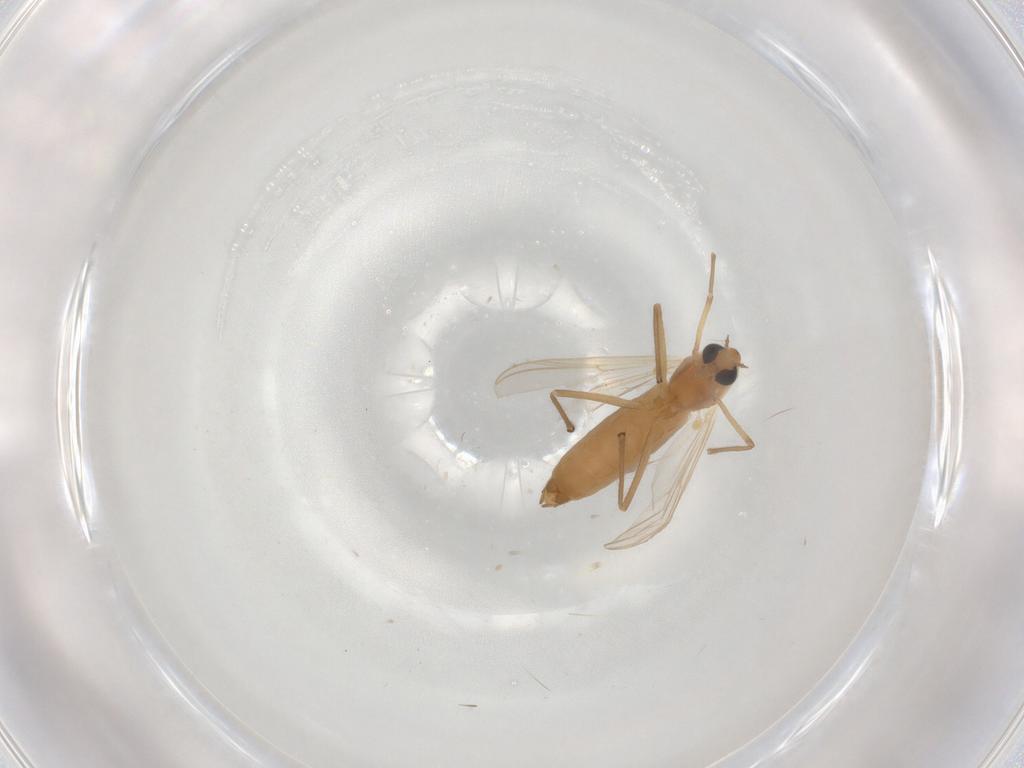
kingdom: Animalia
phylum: Arthropoda
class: Insecta
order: Diptera
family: Chironomidae
